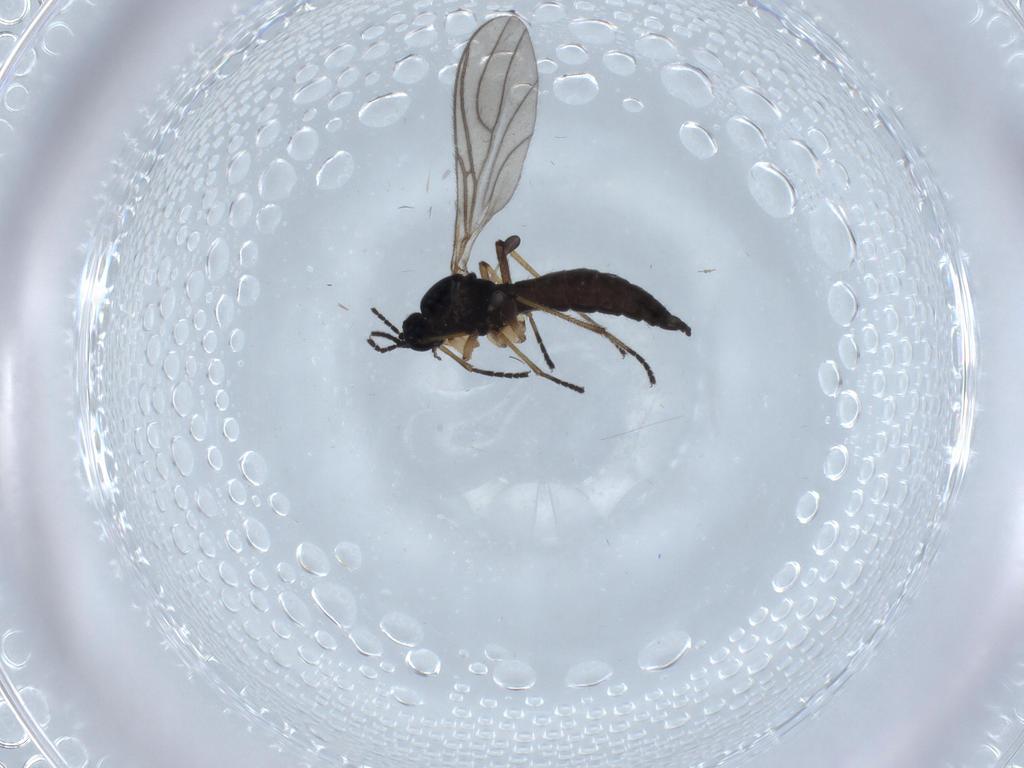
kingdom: Animalia
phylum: Arthropoda
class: Insecta
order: Diptera
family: Sciaridae
